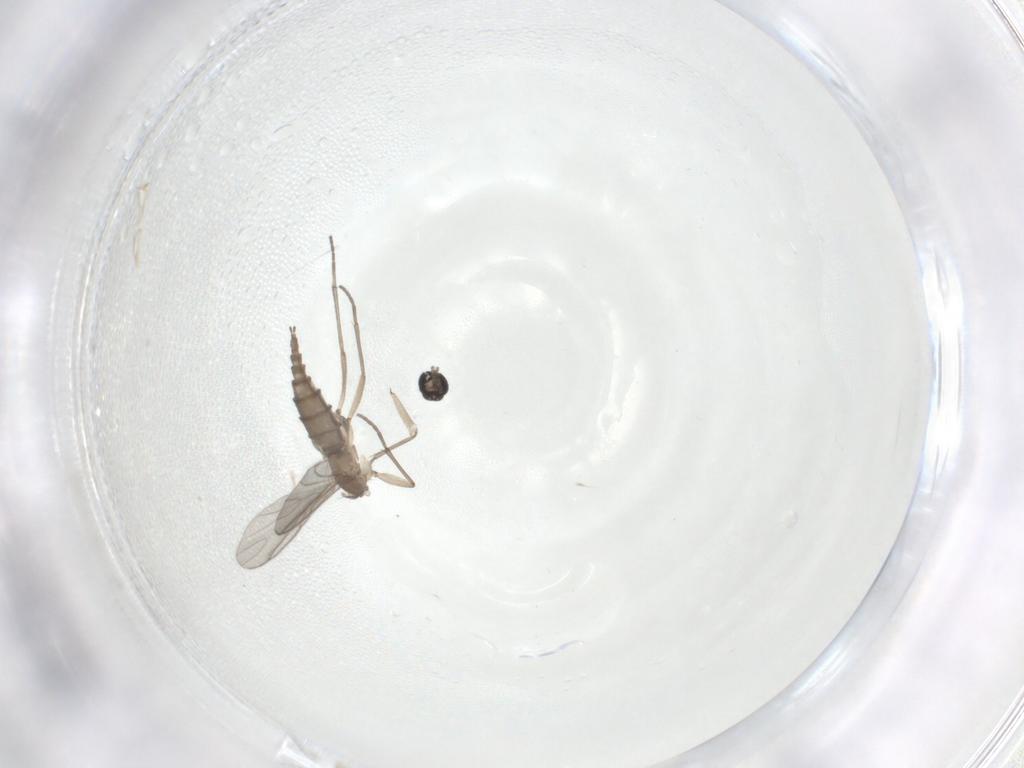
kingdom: Animalia
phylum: Arthropoda
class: Insecta
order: Diptera
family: Sciaridae
